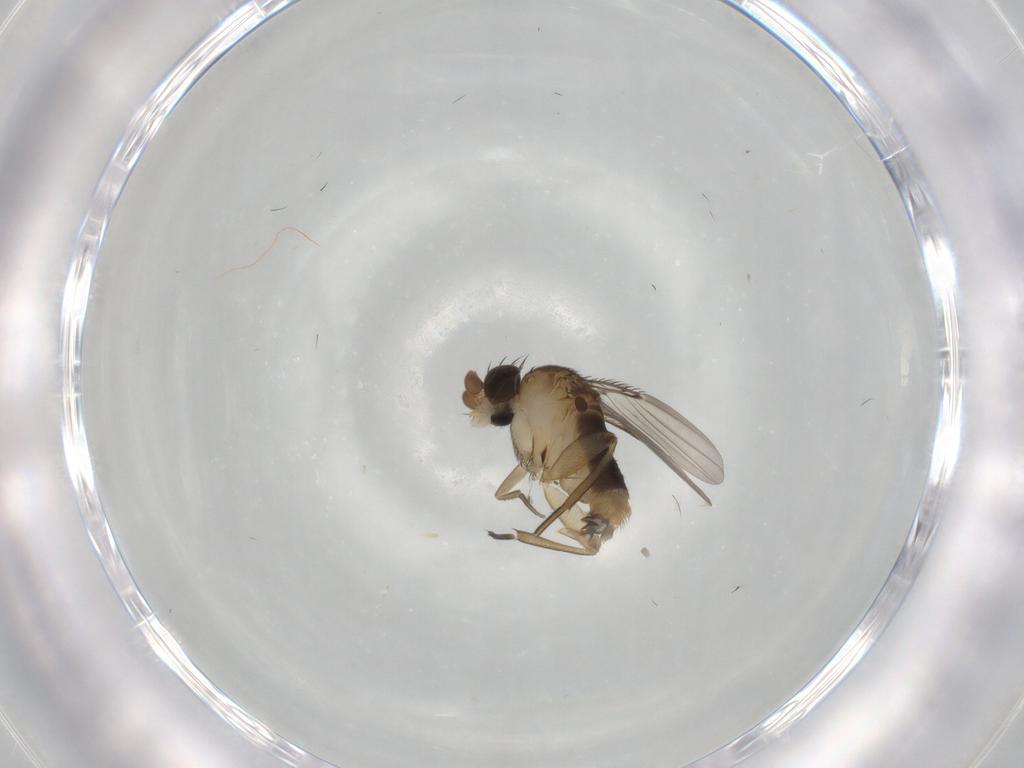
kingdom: Animalia
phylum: Arthropoda
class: Insecta
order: Diptera
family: Phoridae
